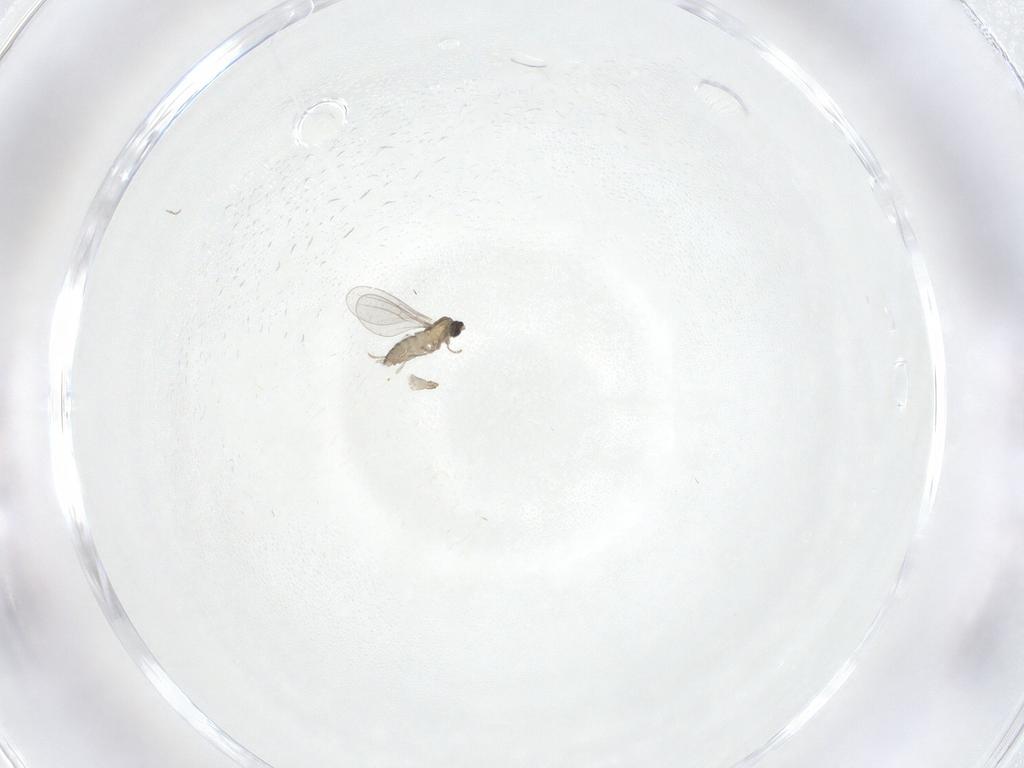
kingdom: Animalia
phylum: Arthropoda
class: Insecta
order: Diptera
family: Cecidomyiidae
